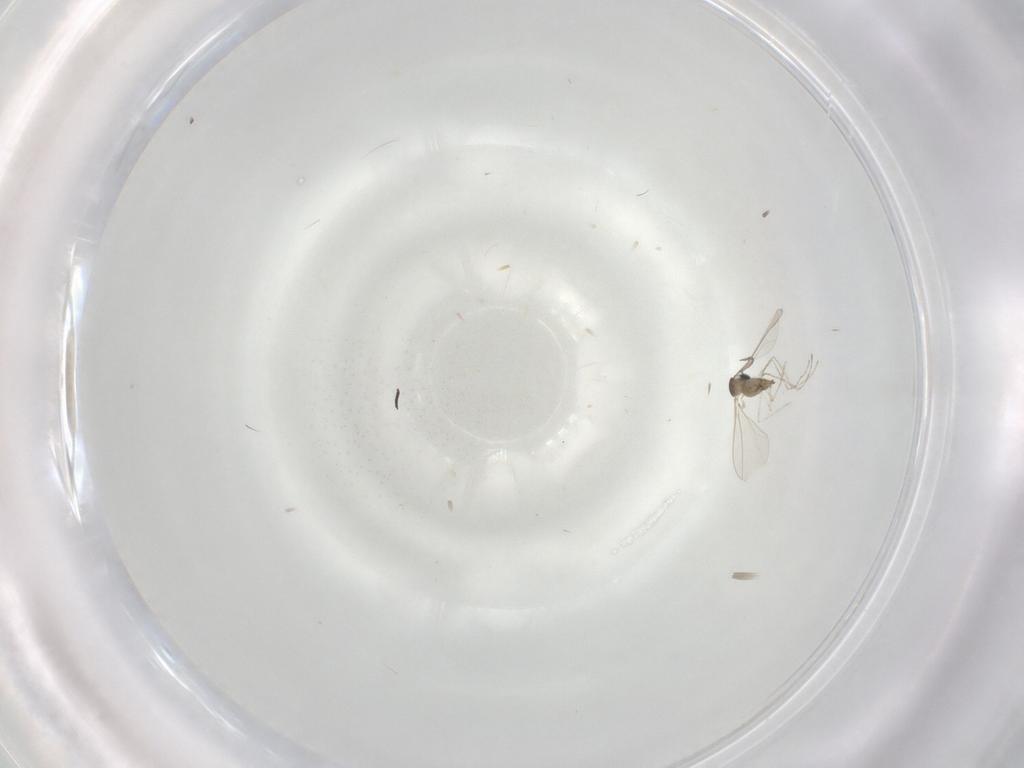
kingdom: Animalia
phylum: Arthropoda
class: Insecta
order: Diptera
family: Cecidomyiidae
